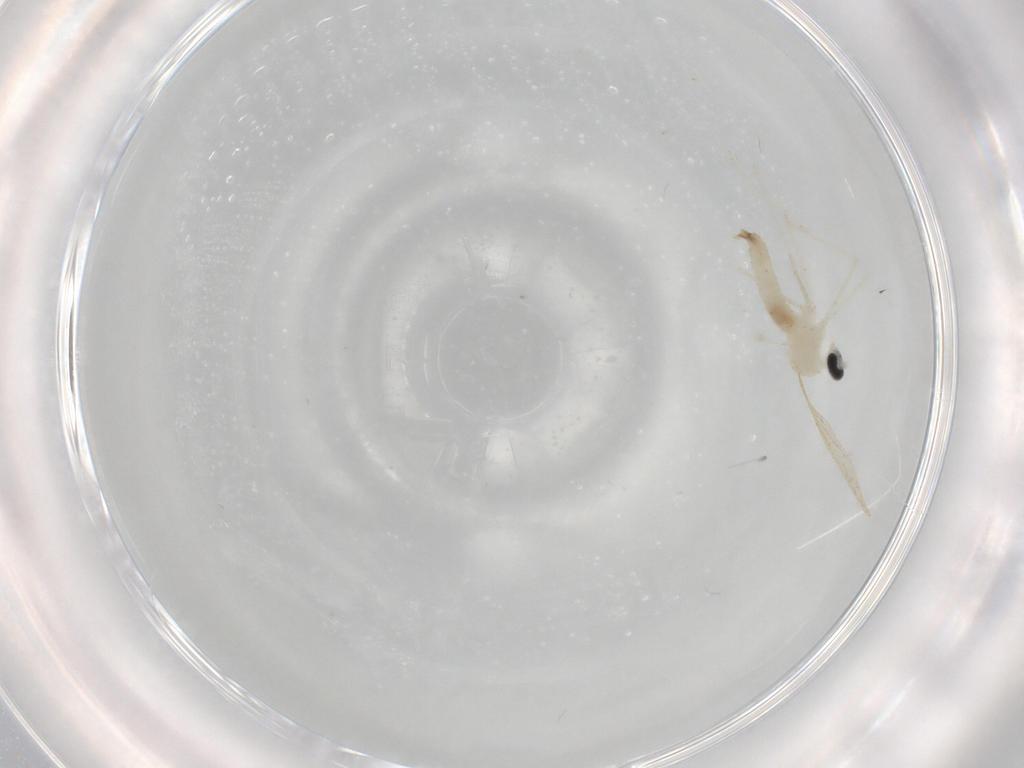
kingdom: Animalia
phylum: Arthropoda
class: Insecta
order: Diptera
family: Cecidomyiidae
